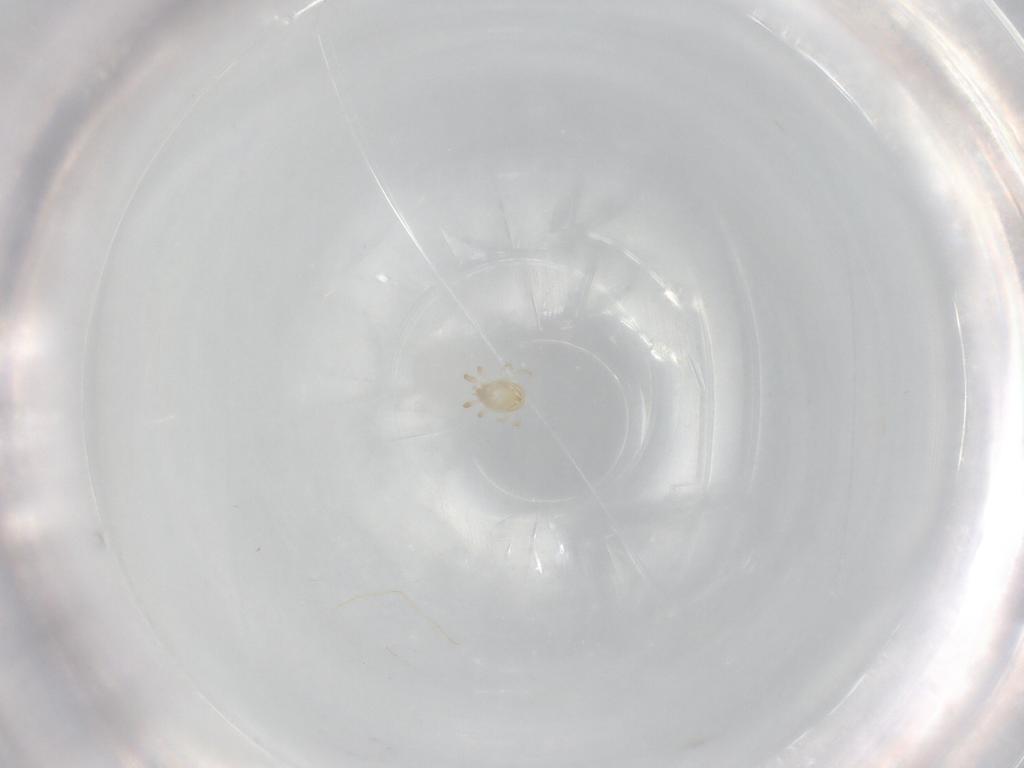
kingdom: Animalia
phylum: Arthropoda
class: Arachnida
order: Mesostigmata
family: Phytoseiidae
